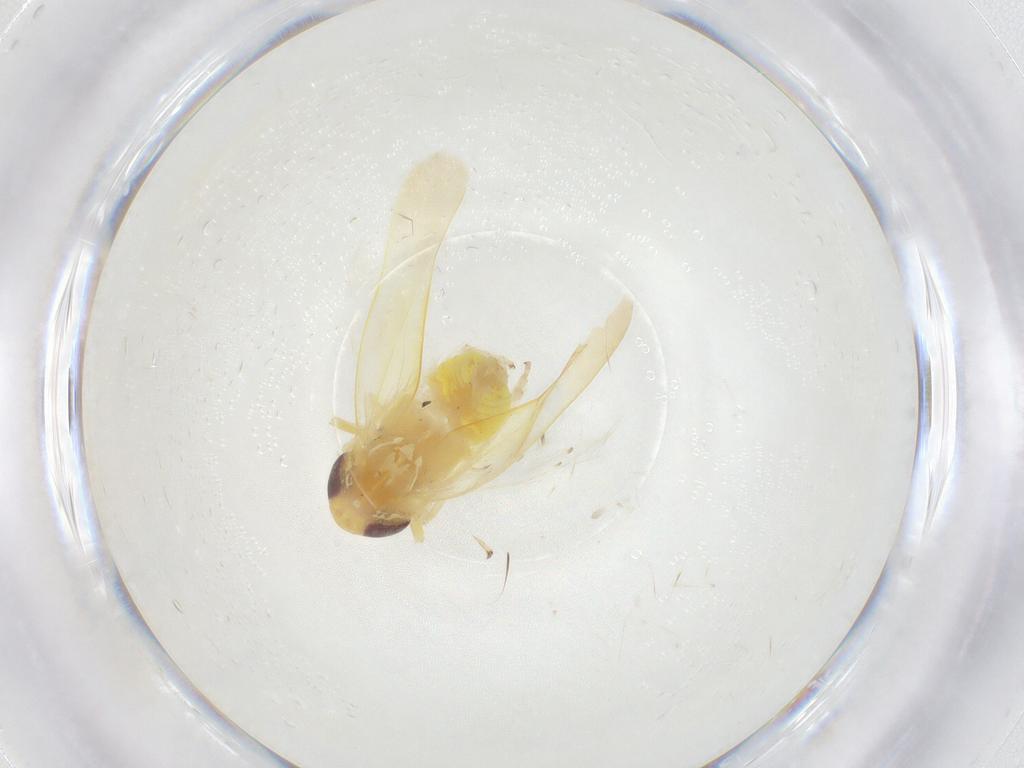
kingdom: Animalia
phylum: Arthropoda
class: Insecta
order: Hemiptera
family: Cicadellidae
